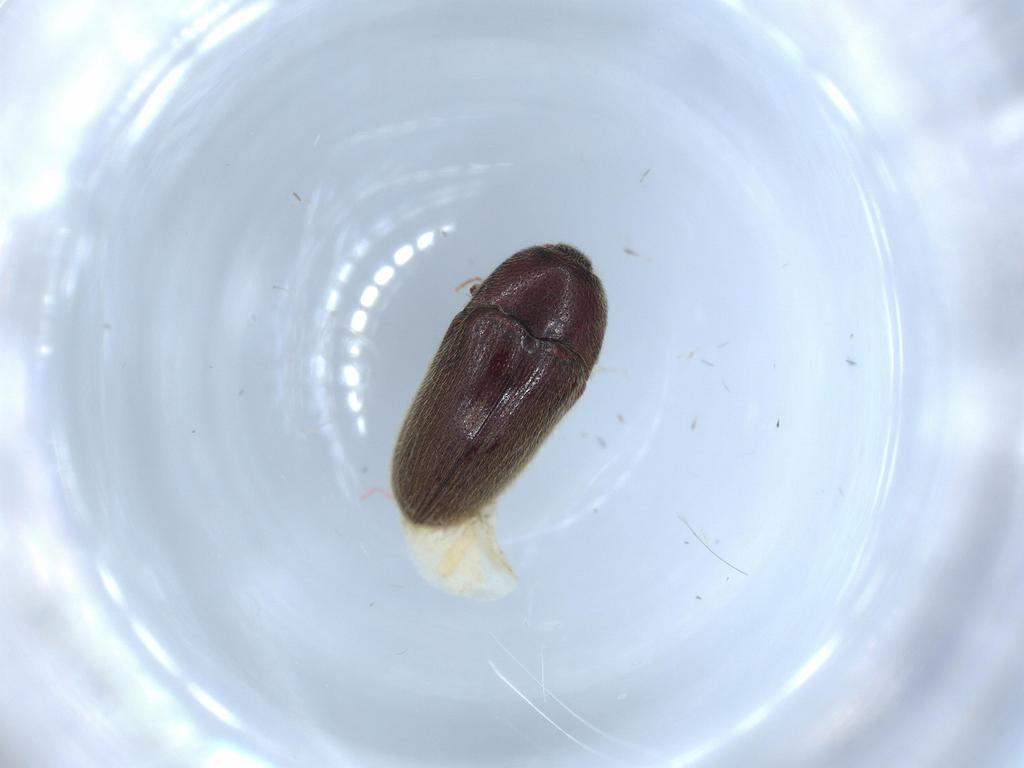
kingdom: Animalia
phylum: Arthropoda
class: Insecta
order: Coleoptera
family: Throscidae
